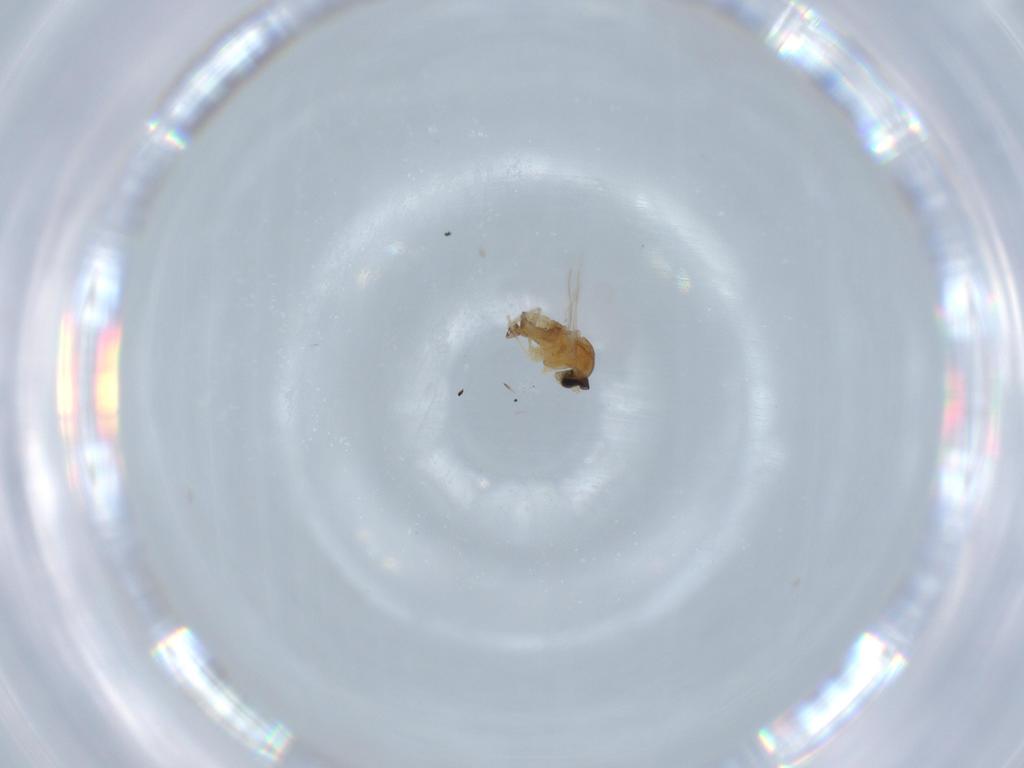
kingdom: Animalia
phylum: Arthropoda
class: Insecta
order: Diptera
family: Cecidomyiidae
